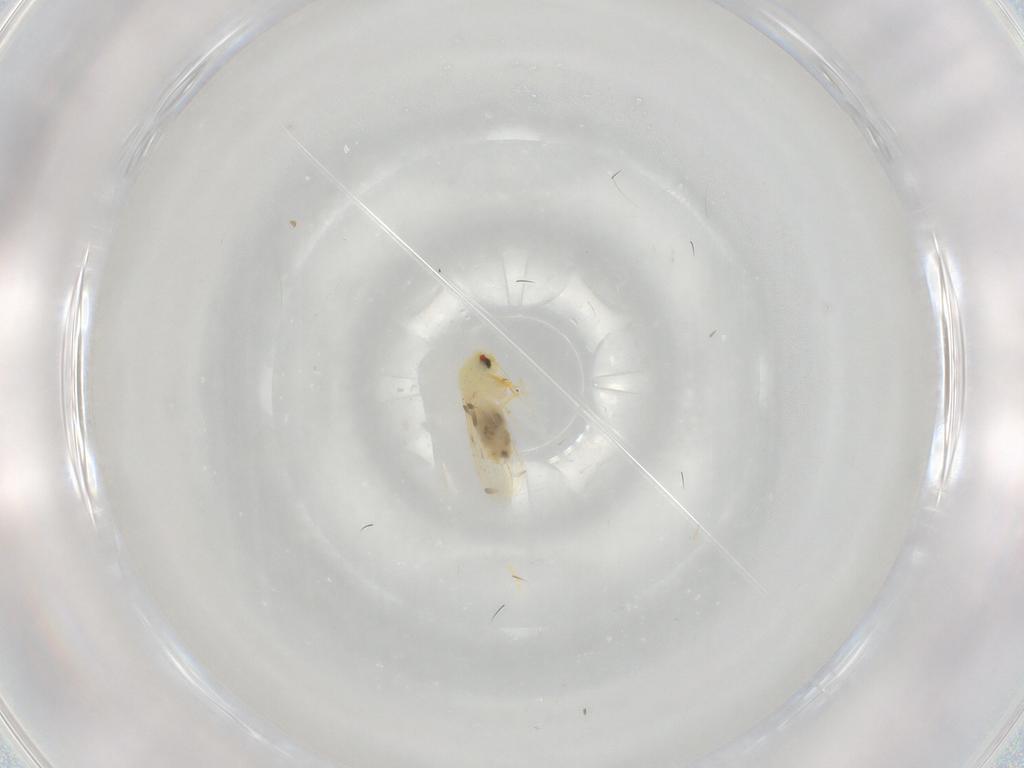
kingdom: Animalia
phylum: Arthropoda
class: Insecta
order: Hemiptera
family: Aleyrodidae
